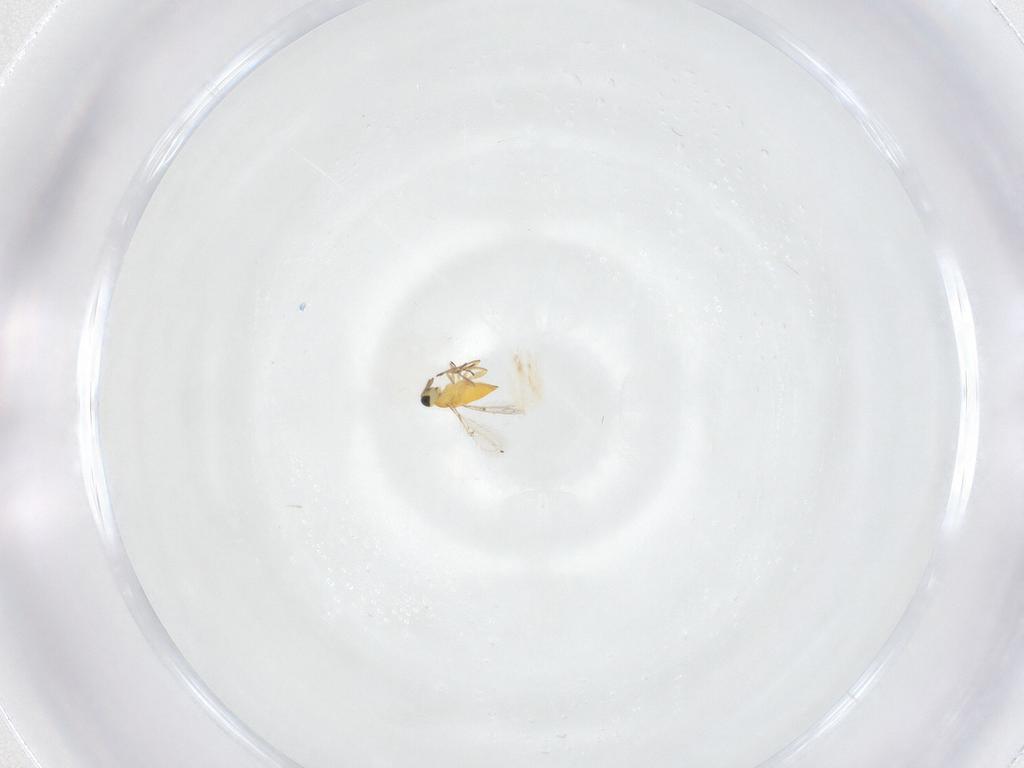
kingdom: Animalia
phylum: Arthropoda
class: Insecta
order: Hymenoptera
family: Trichogrammatidae
